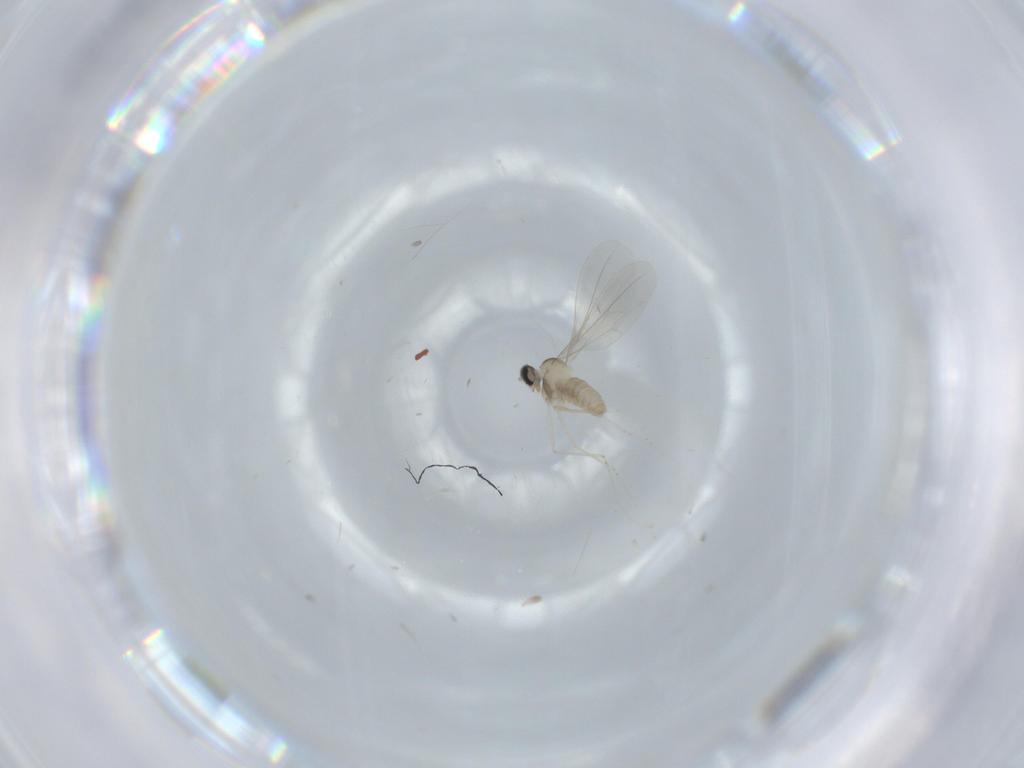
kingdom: Animalia
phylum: Arthropoda
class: Insecta
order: Diptera
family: Cecidomyiidae
